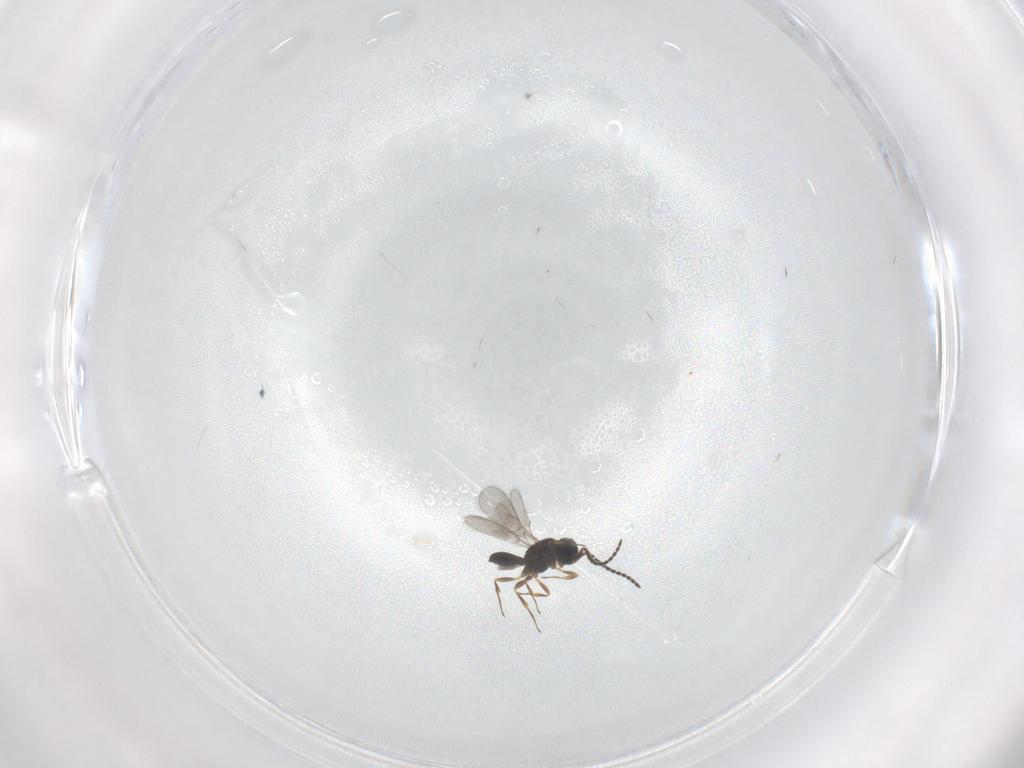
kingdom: Animalia
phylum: Arthropoda
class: Insecta
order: Hymenoptera
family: Scelionidae
